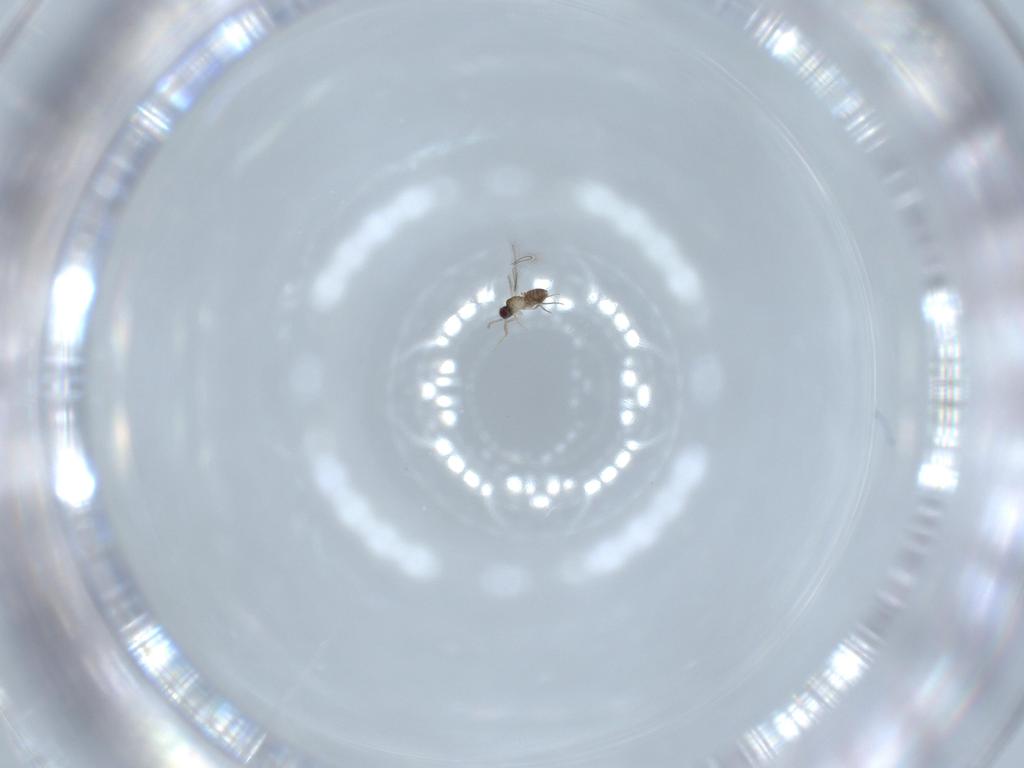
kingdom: Animalia
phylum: Arthropoda
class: Insecta
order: Hymenoptera
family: Mymaridae
